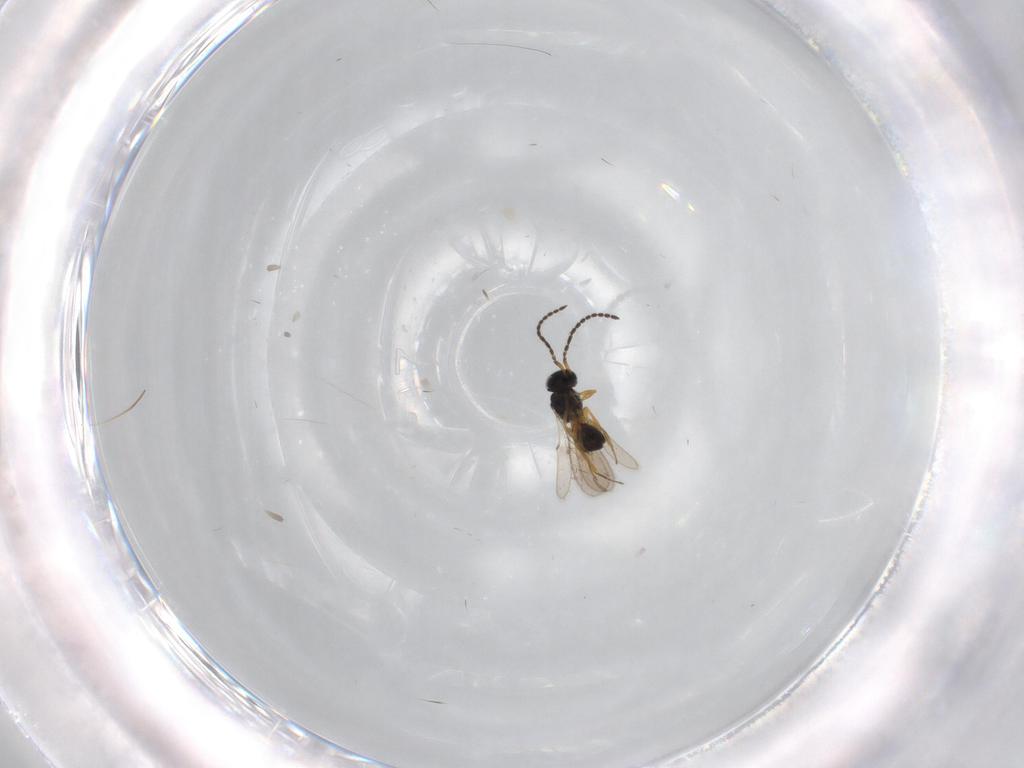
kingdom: Animalia
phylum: Arthropoda
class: Insecta
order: Hymenoptera
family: Scelionidae
